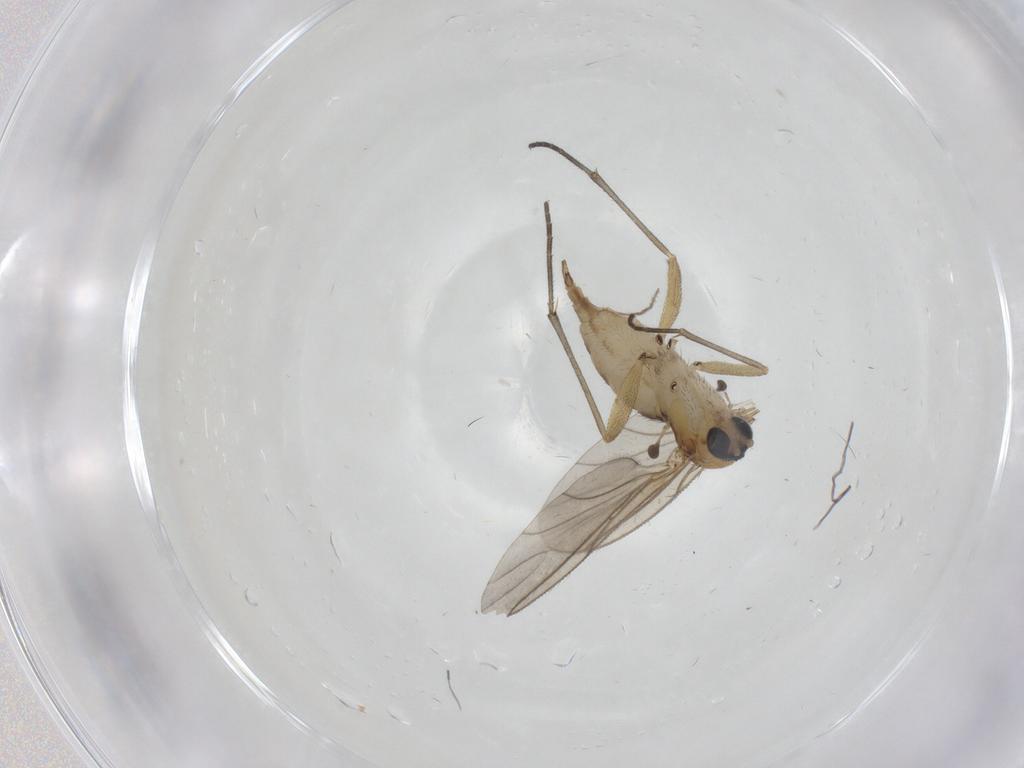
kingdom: Animalia
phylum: Arthropoda
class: Insecta
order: Diptera
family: Sciaridae
